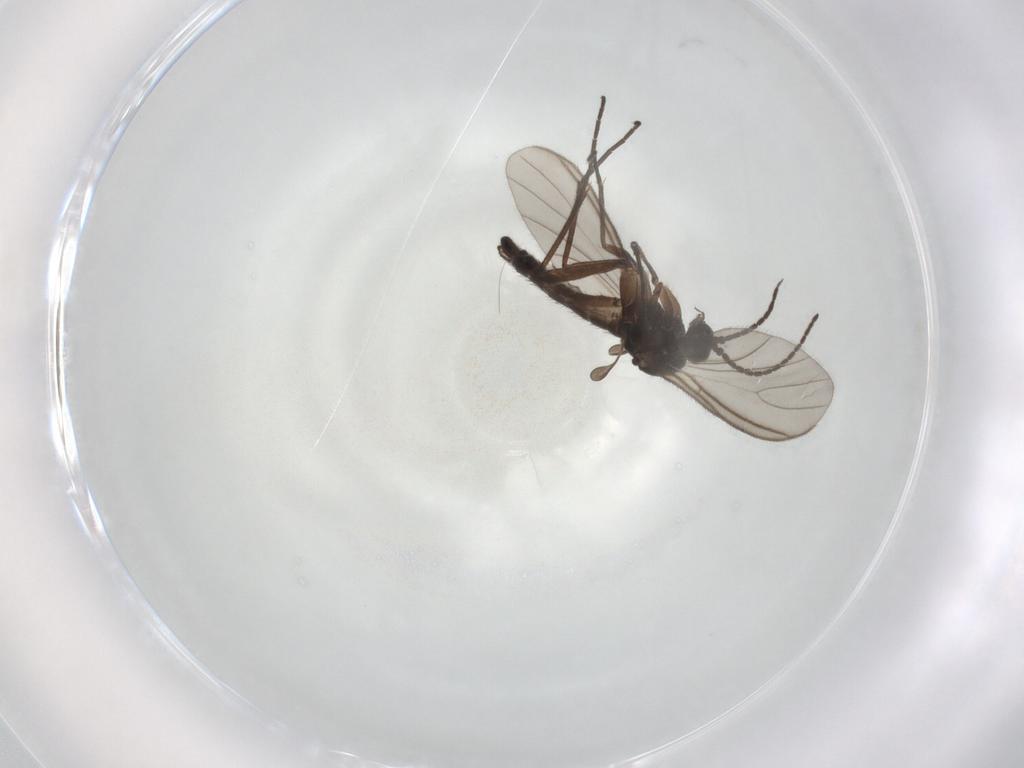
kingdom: Animalia
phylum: Arthropoda
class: Insecta
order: Diptera
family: Sciaridae
